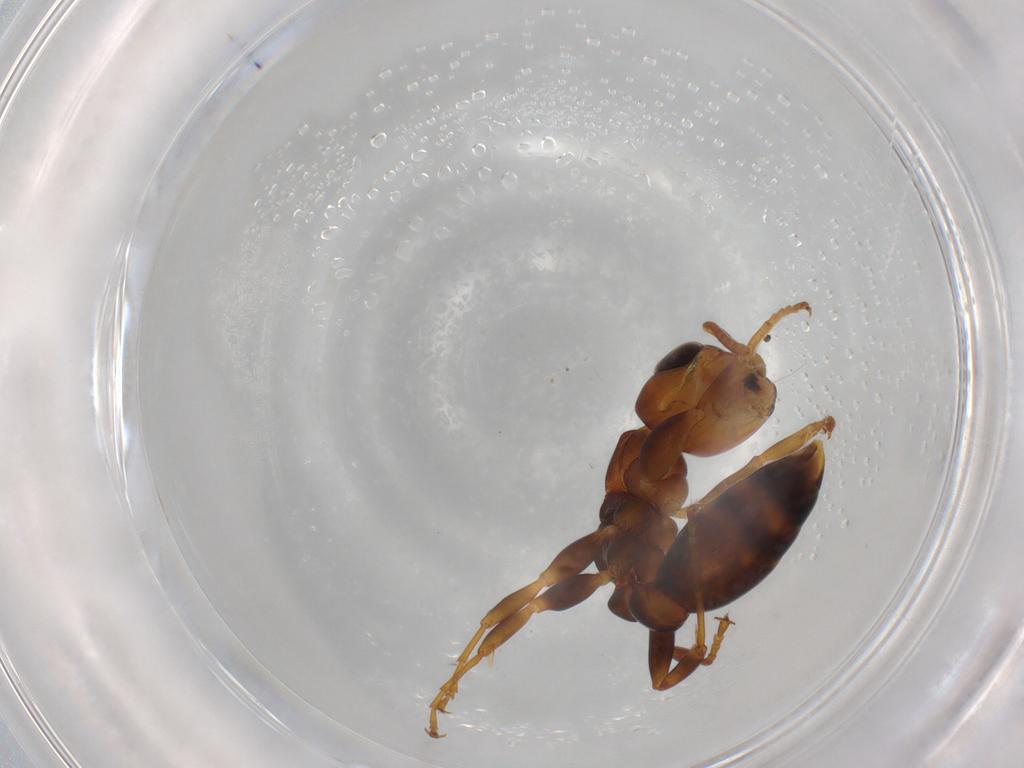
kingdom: Animalia
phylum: Arthropoda
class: Insecta
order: Hymenoptera
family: Formicidae
